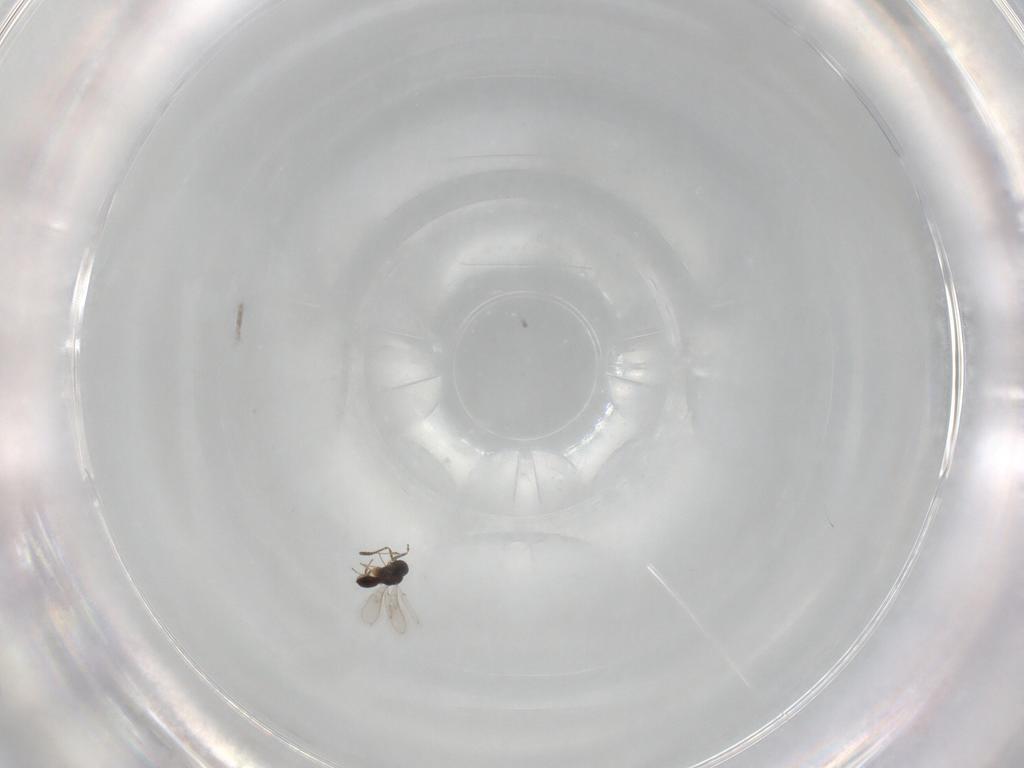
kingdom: Animalia
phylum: Arthropoda
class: Insecta
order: Hymenoptera
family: Scelionidae
